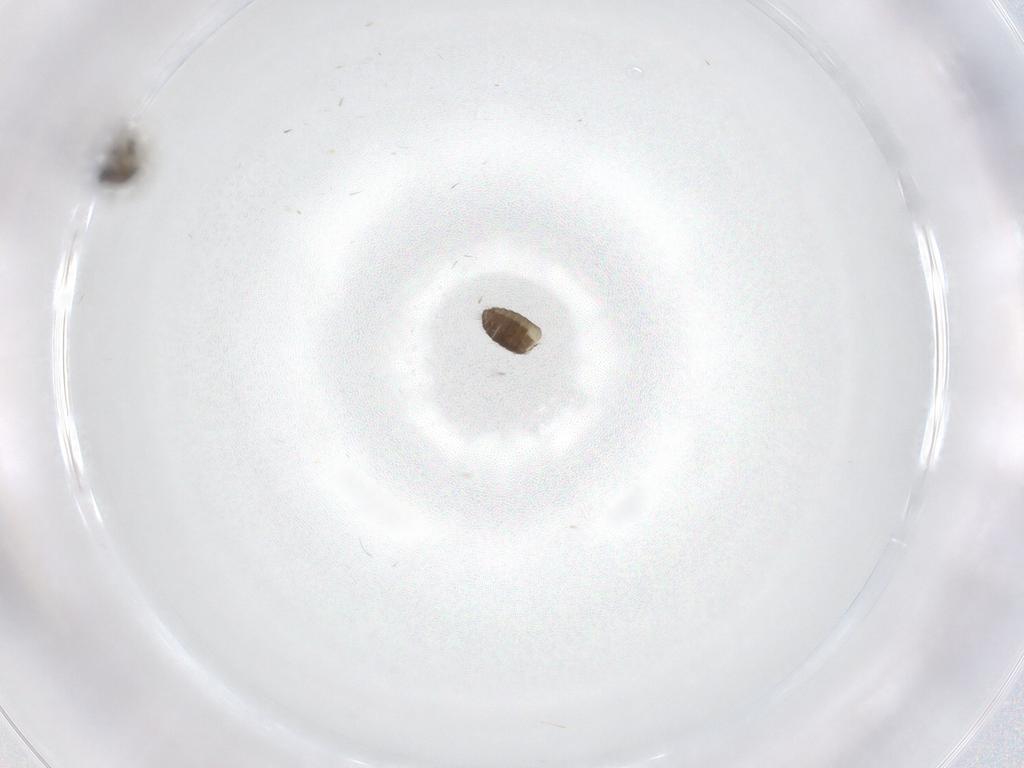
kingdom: Animalia
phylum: Arthropoda
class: Insecta
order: Diptera
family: Ceratopogonidae
